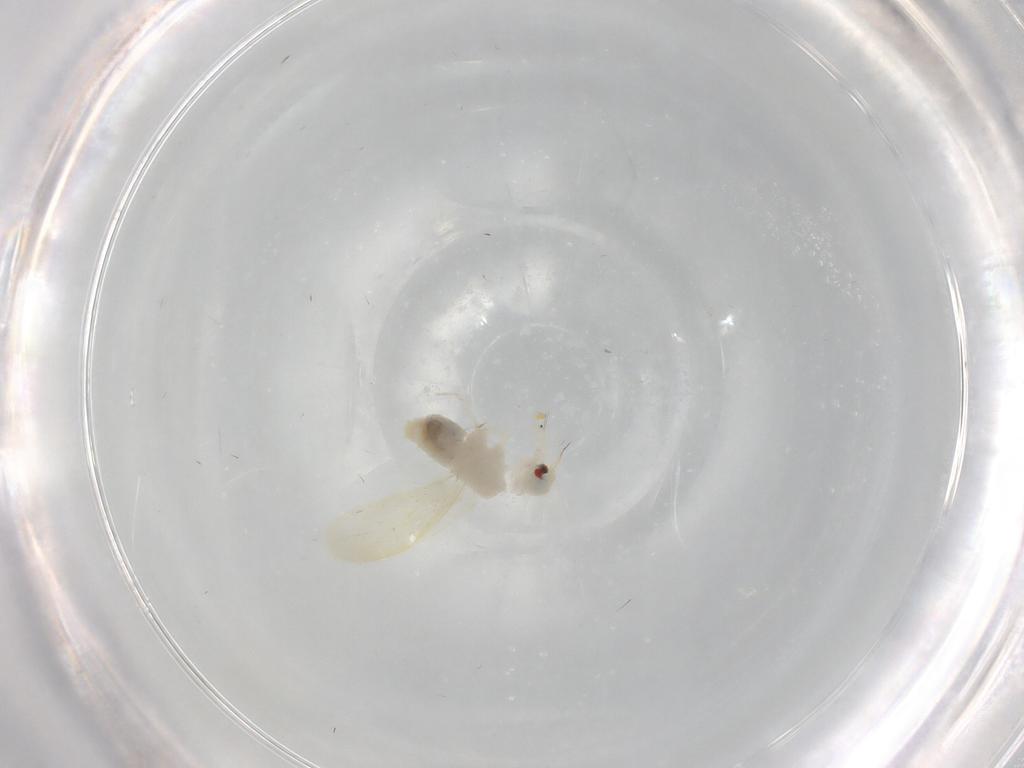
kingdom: Animalia
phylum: Arthropoda
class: Insecta
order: Hemiptera
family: Aleyrodidae
